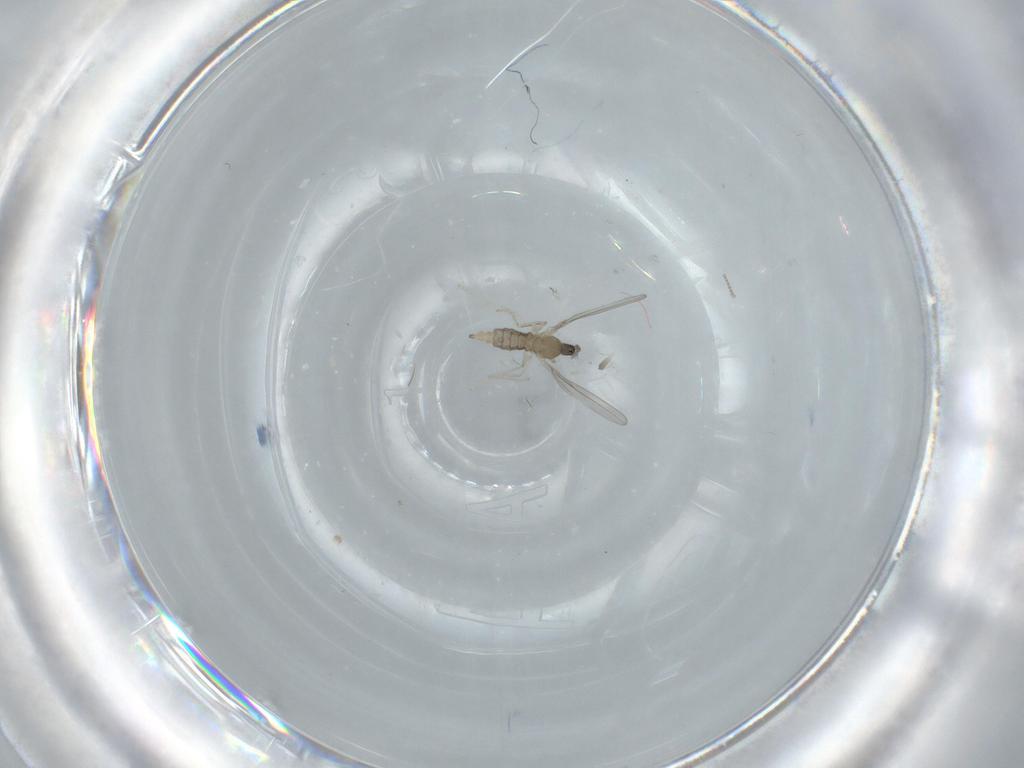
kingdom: Animalia
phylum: Arthropoda
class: Insecta
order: Diptera
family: Cecidomyiidae
